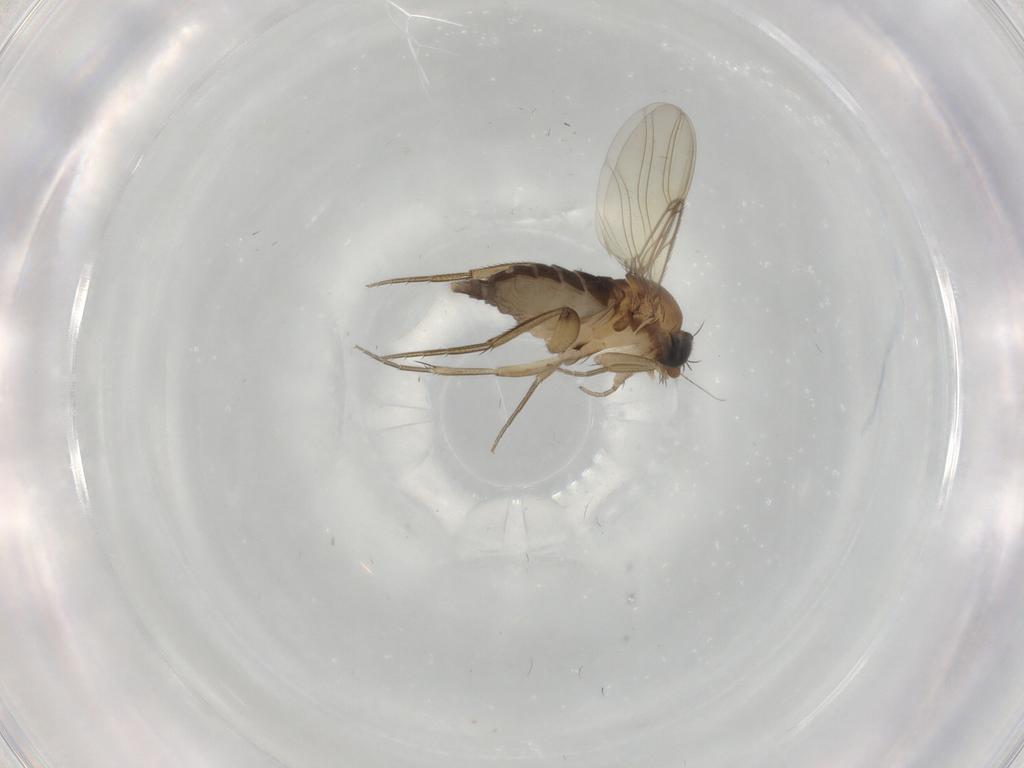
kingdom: Animalia
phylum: Arthropoda
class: Insecta
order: Diptera
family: Phoridae
